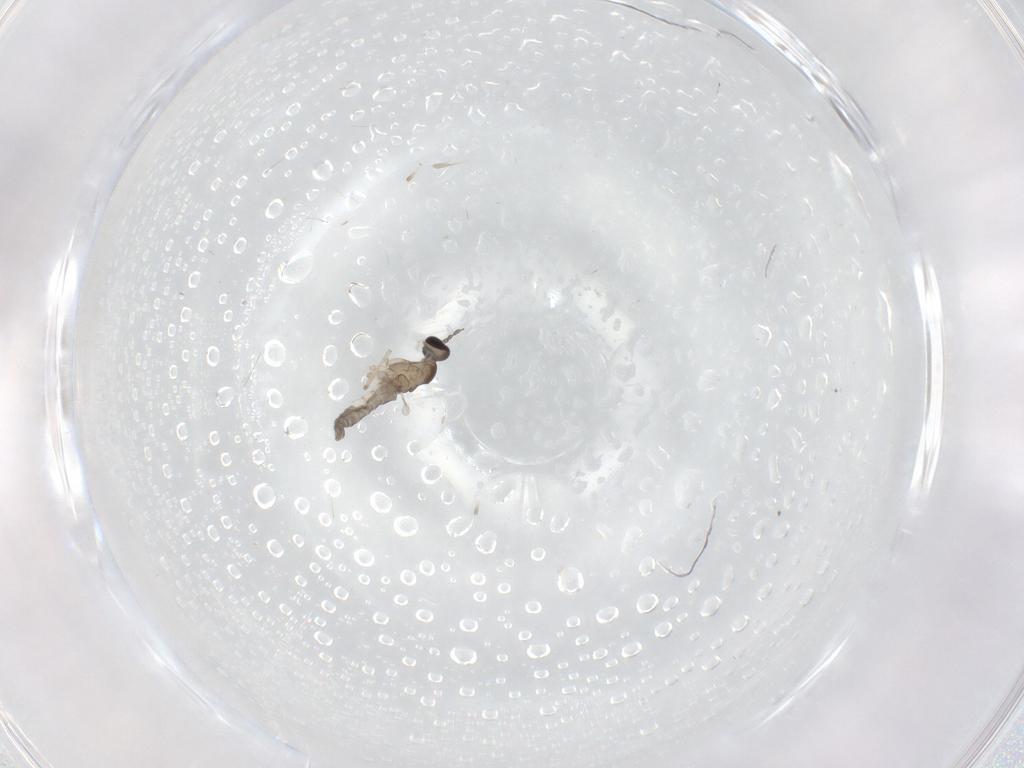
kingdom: Animalia
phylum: Arthropoda
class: Insecta
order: Diptera
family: Cecidomyiidae
